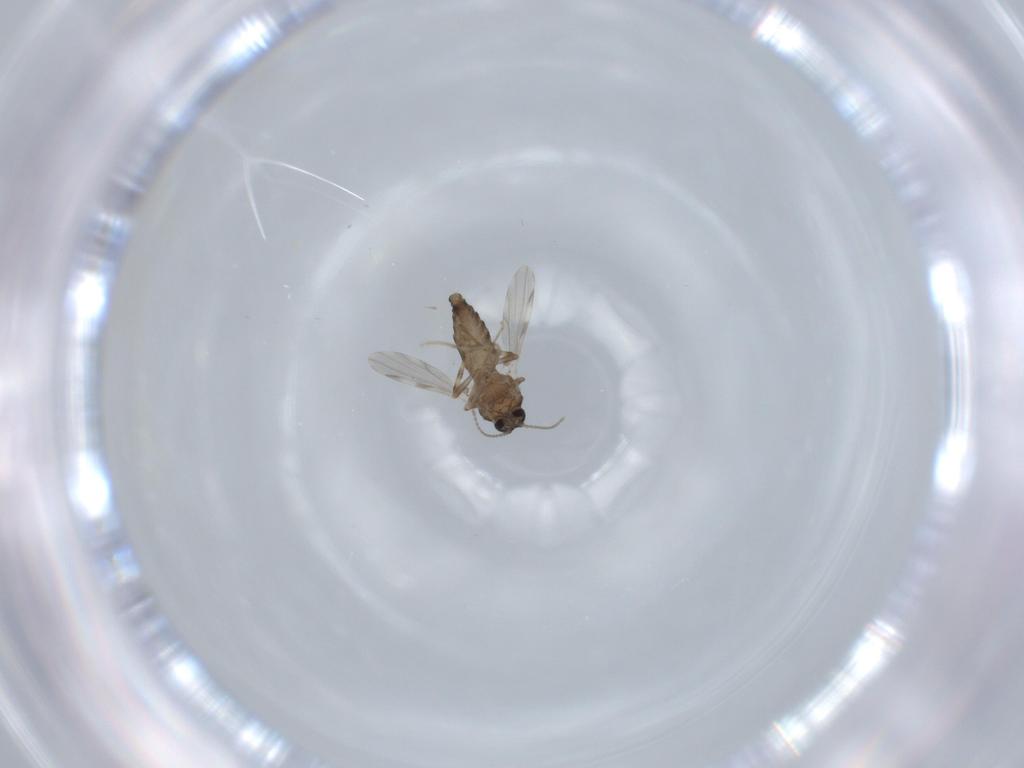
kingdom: Animalia
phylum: Arthropoda
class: Insecta
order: Diptera
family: Ceratopogonidae
